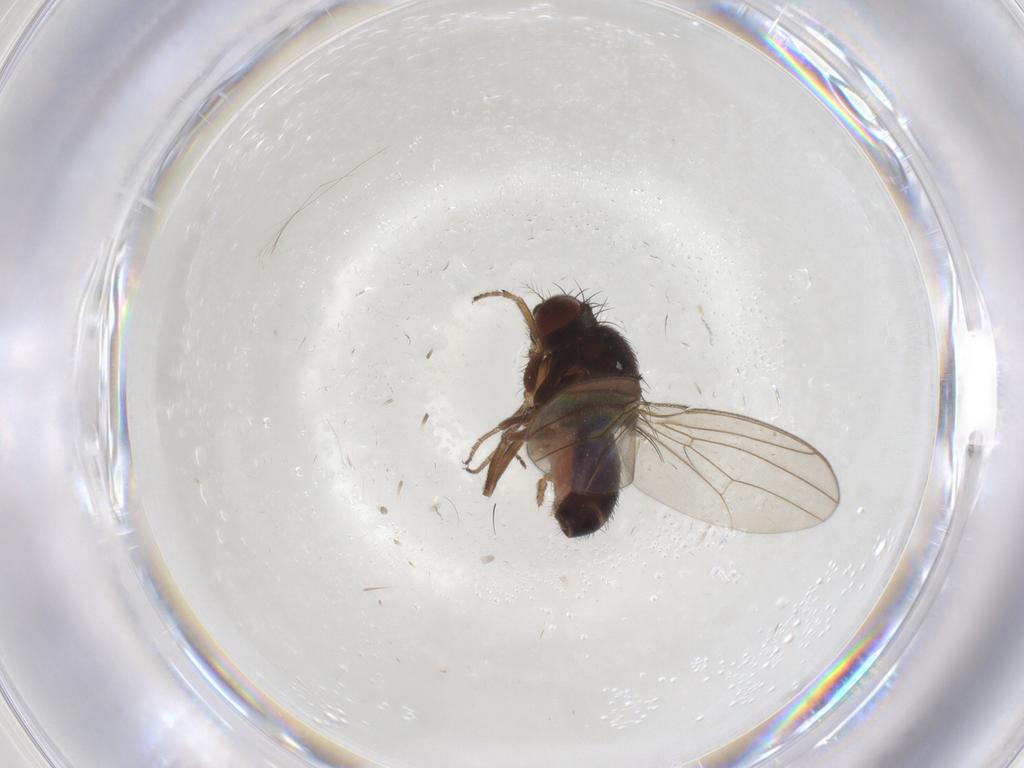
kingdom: Animalia
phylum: Arthropoda
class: Insecta
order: Diptera
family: Drosophilidae
